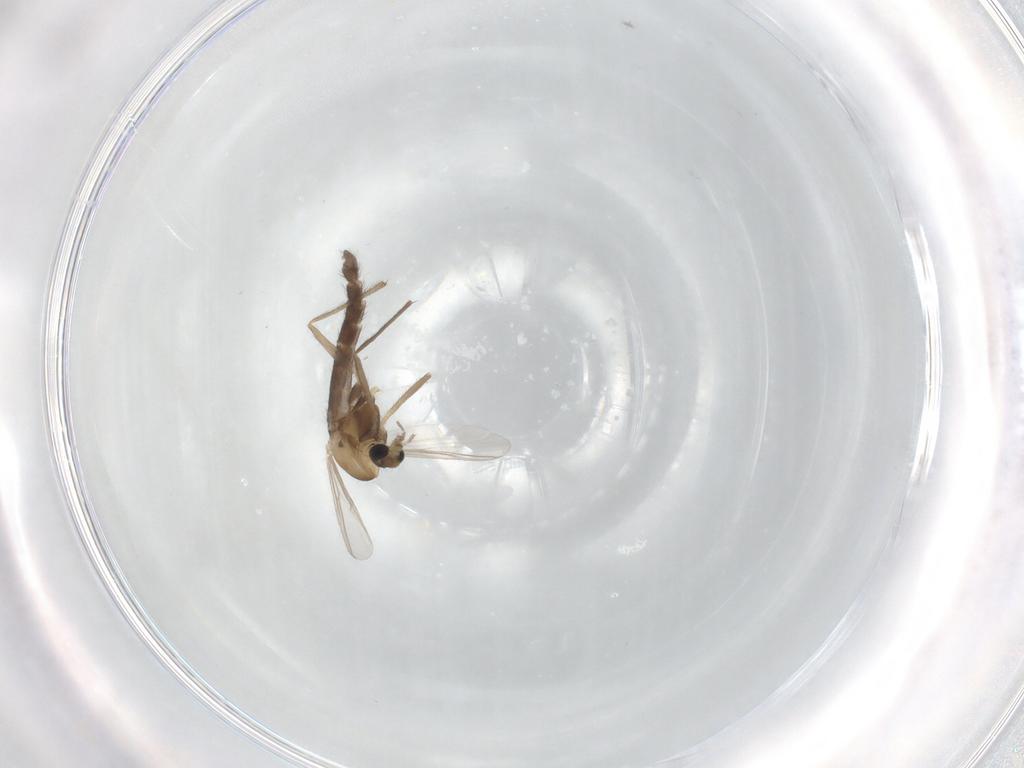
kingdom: Animalia
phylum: Arthropoda
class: Insecta
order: Diptera
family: Chironomidae
